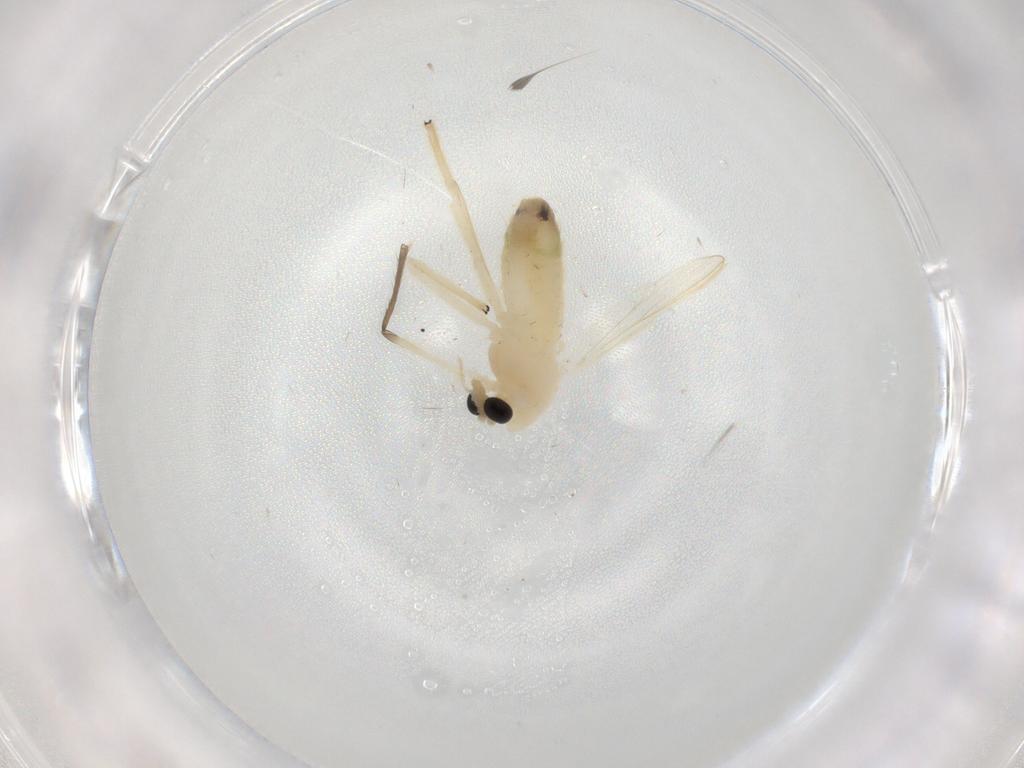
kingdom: Animalia
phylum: Arthropoda
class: Insecta
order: Diptera
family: Chironomidae
